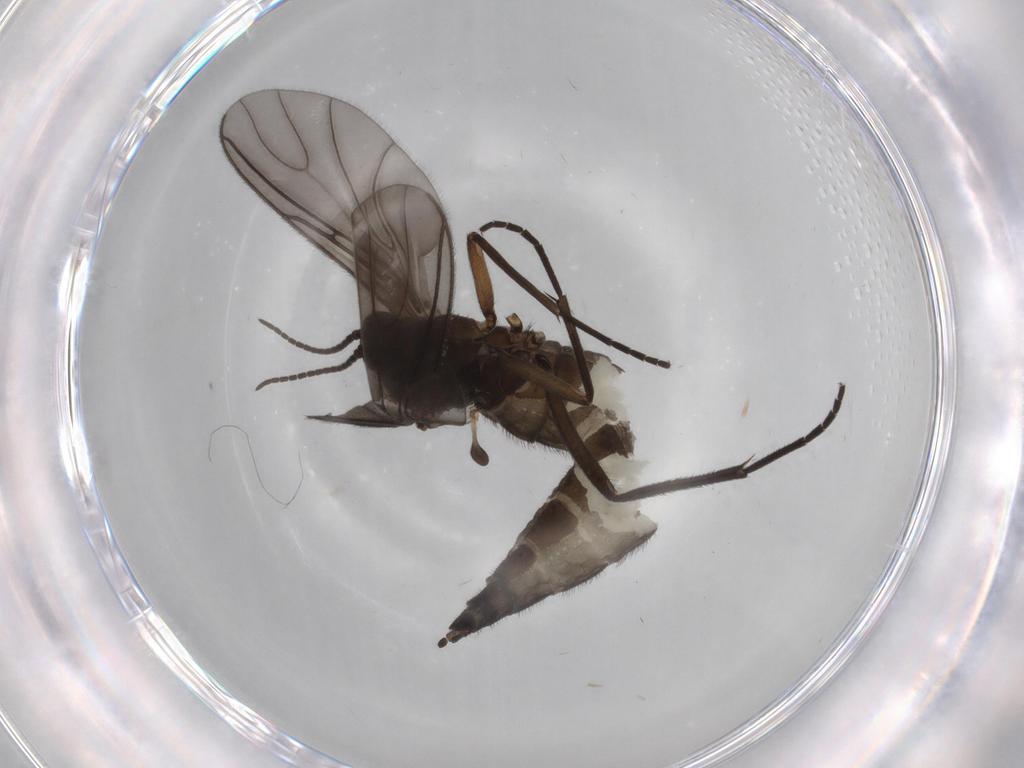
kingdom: Animalia
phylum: Arthropoda
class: Insecta
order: Diptera
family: Sciaridae
